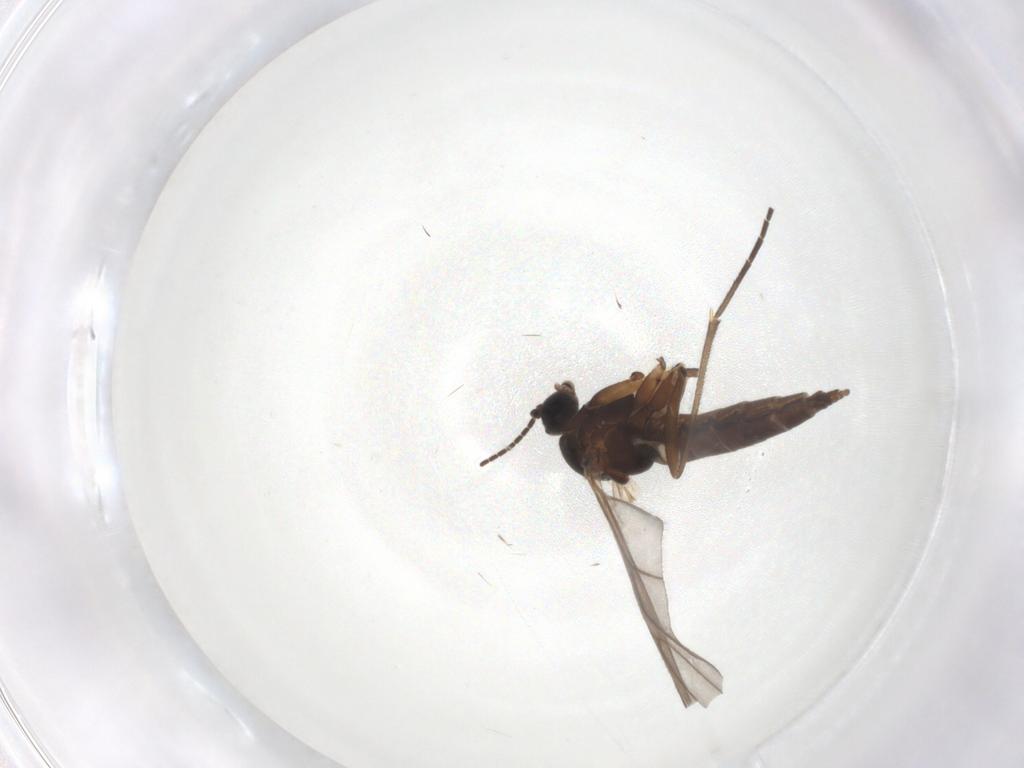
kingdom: Animalia
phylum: Arthropoda
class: Insecta
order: Diptera
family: Sciaridae
